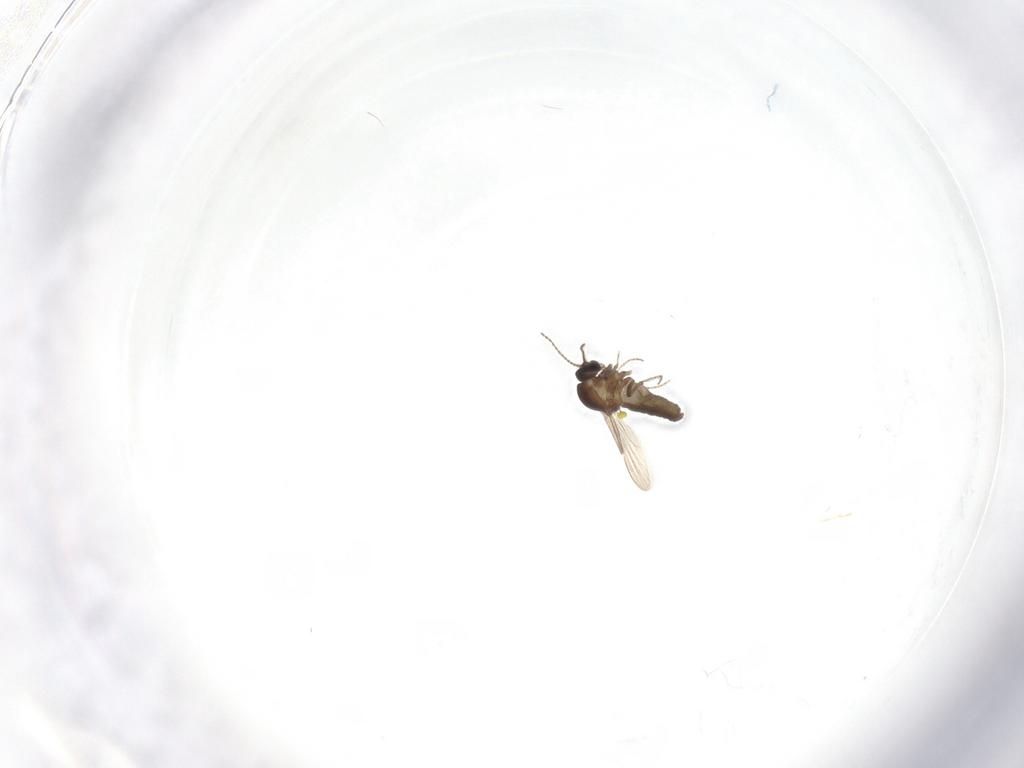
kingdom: Animalia
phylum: Arthropoda
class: Insecta
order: Diptera
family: Ceratopogonidae
